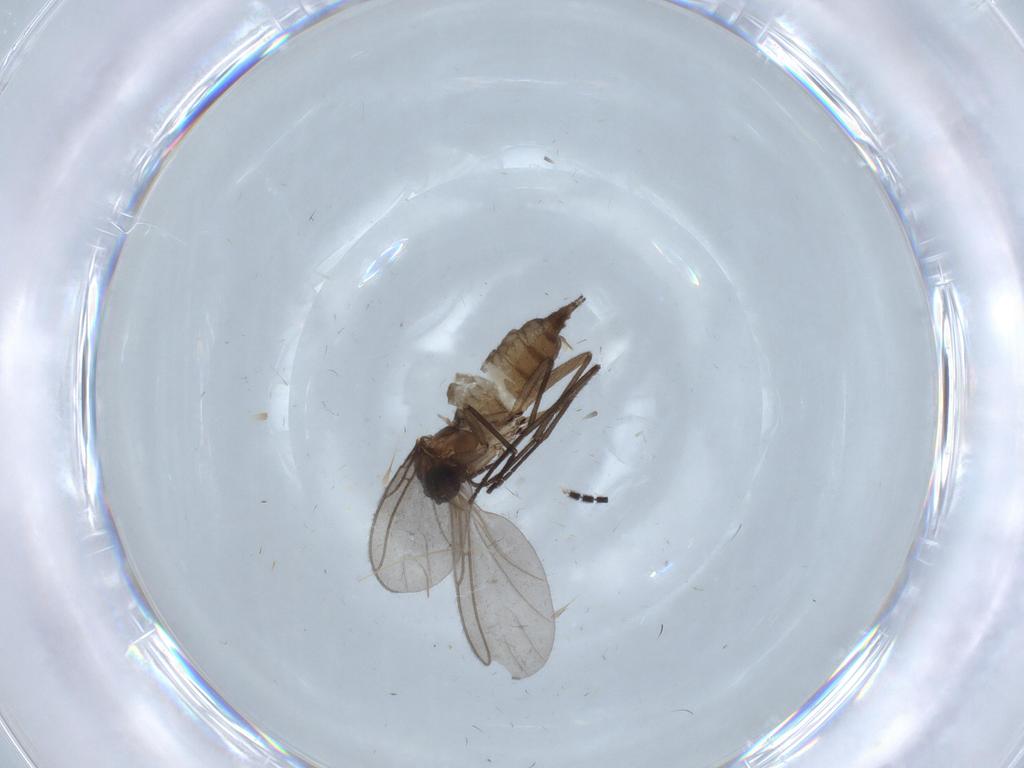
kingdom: Animalia
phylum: Arthropoda
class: Insecta
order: Diptera
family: Sciaridae
